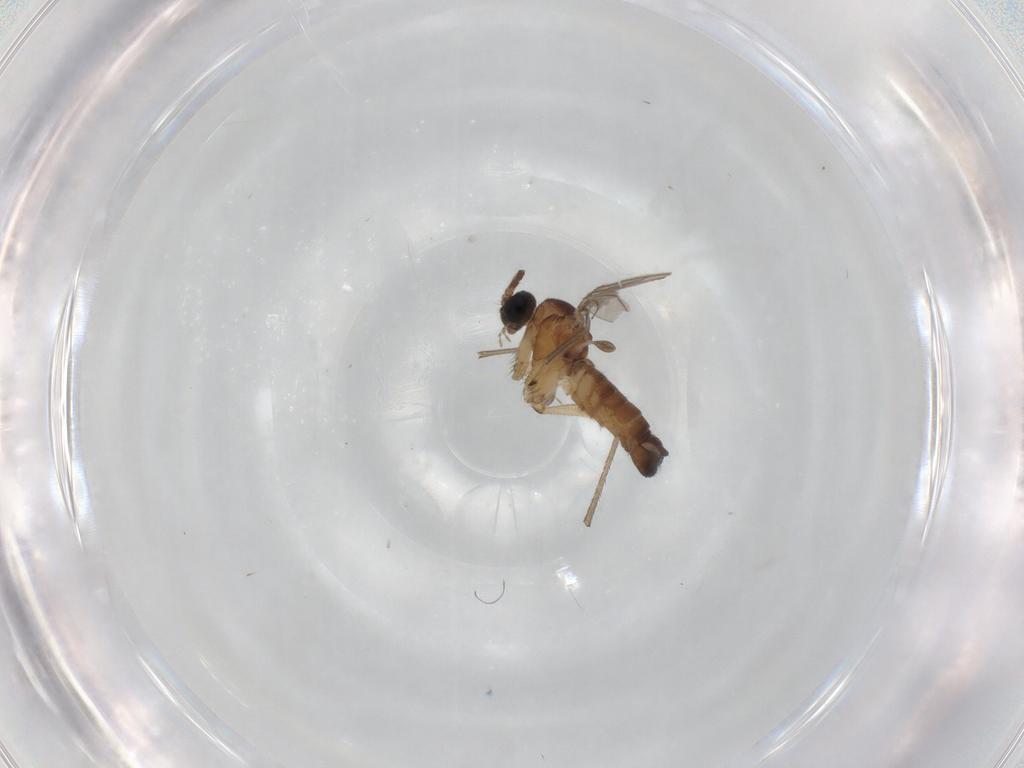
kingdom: Animalia
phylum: Arthropoda
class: Insecta
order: Diptera
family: Sciaridae
